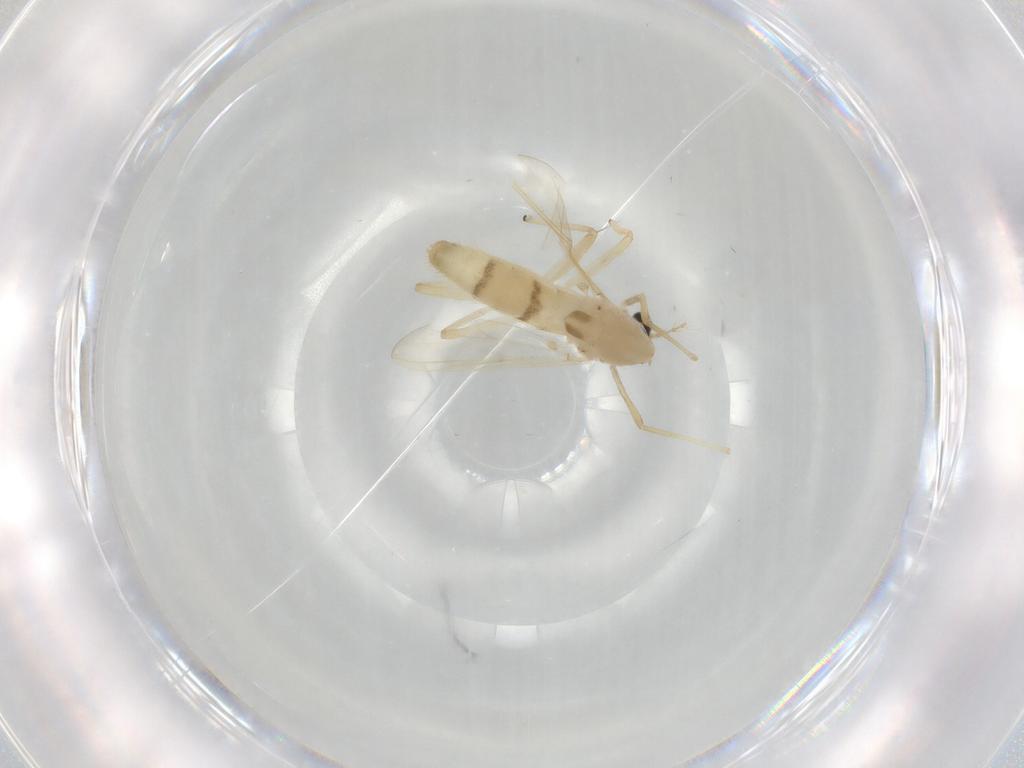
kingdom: Animalia
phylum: Arthropoda
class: Insecta
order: Diptera
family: Chironomidae
